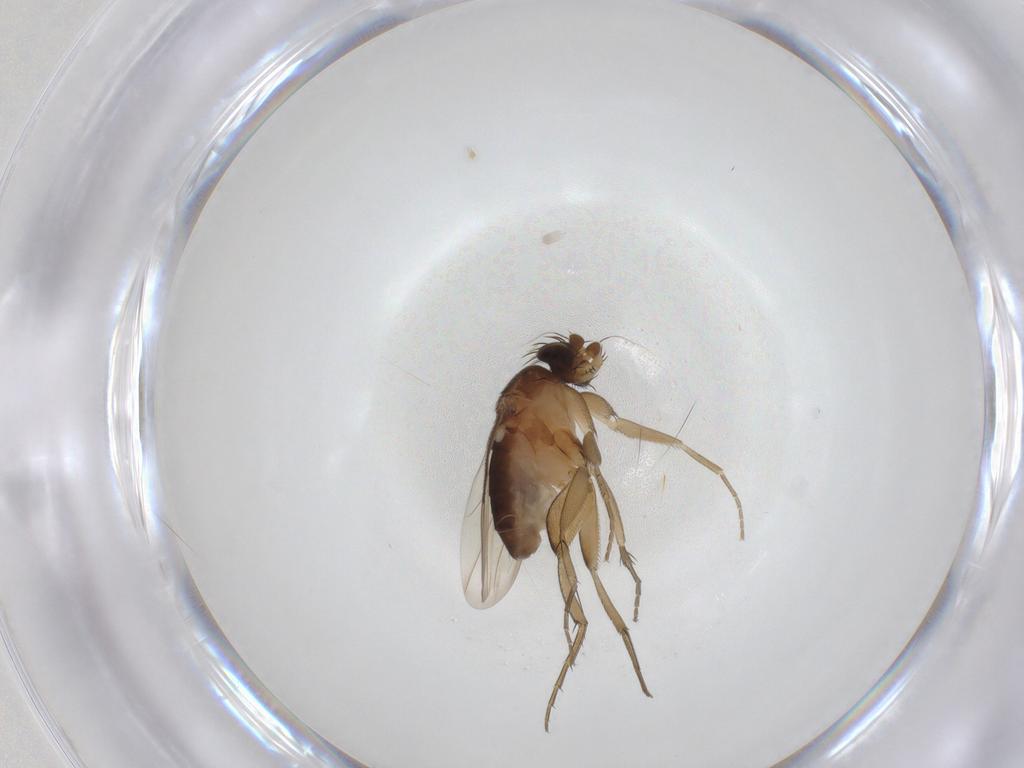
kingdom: Animalia
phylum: Arthropoda
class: Insecta
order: Diptera
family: Phoridae
